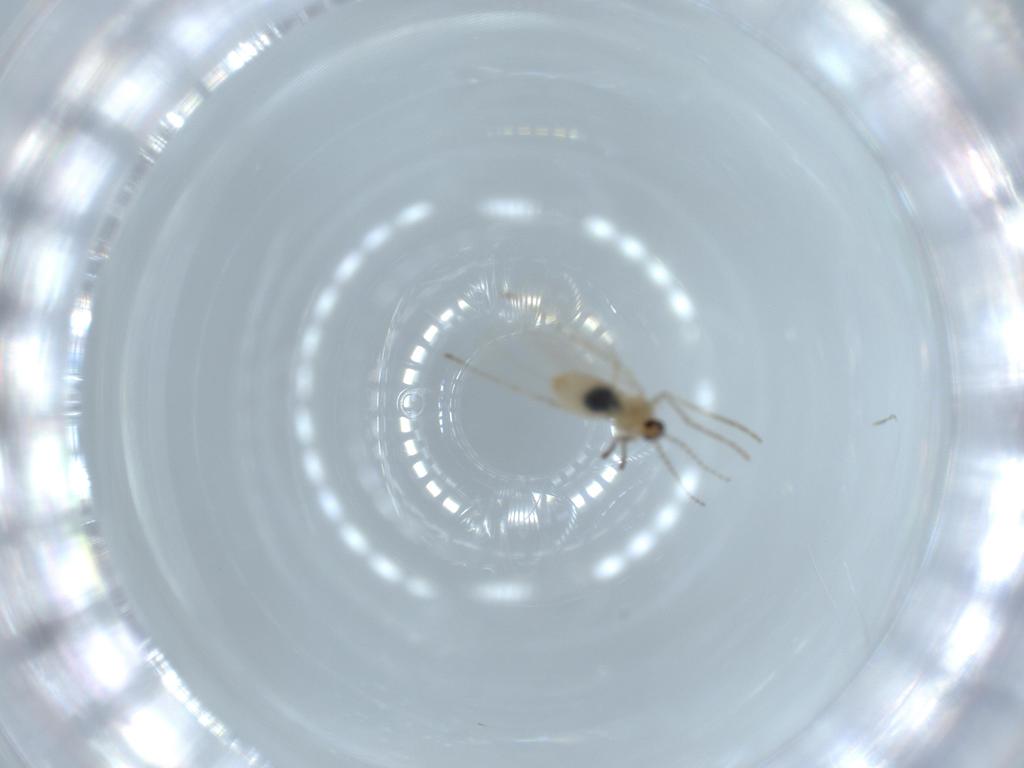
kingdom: Animalia
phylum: Arthropoda
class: Insecta
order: Diptera
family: Cecidomyiidae
